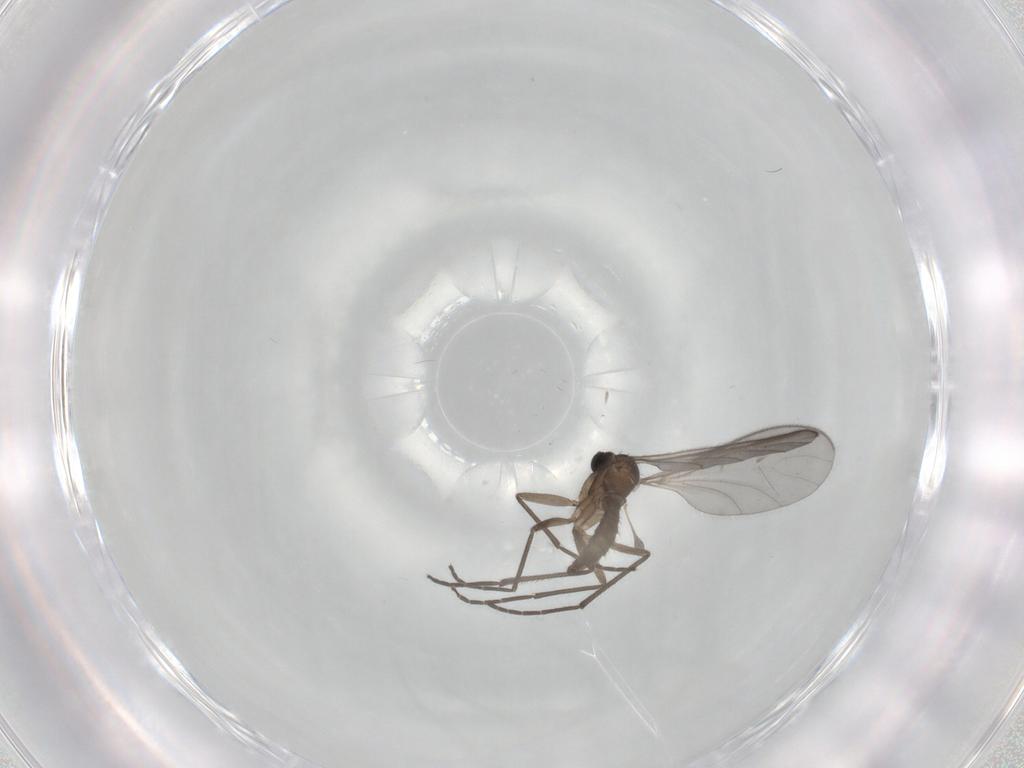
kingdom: Animalia
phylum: Arthropoda
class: Insecta
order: Diptera
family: Sciaridae
